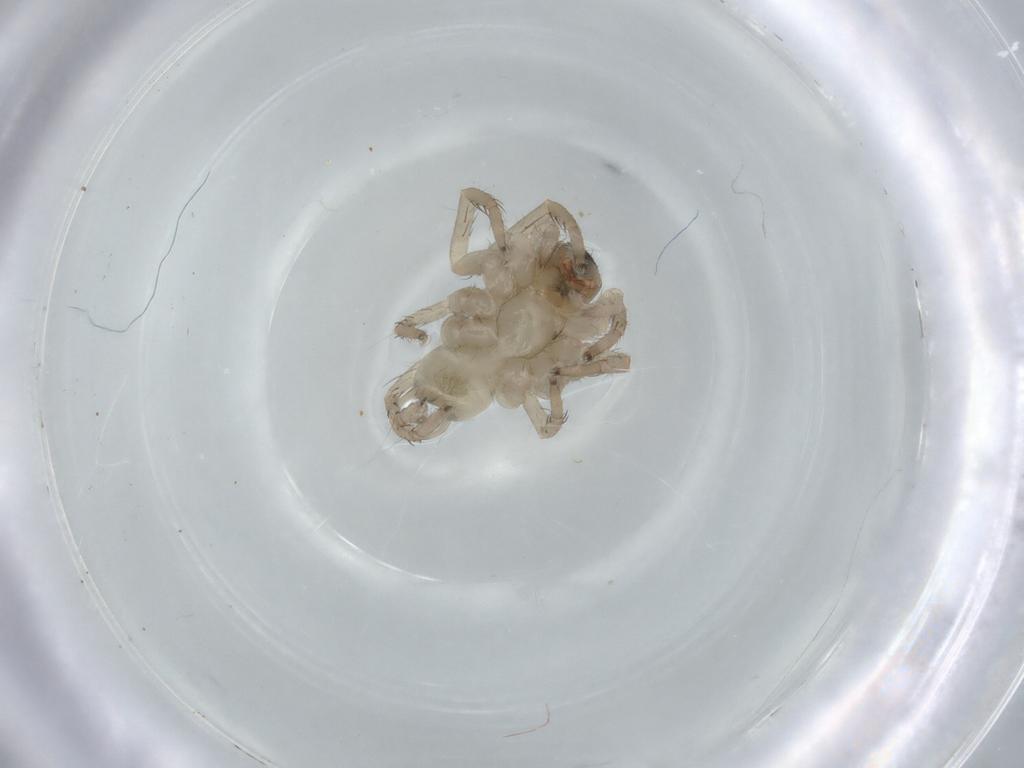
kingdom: Animalia
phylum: Arthropoda
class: Arachnida
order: Araneae
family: Lycosidae
